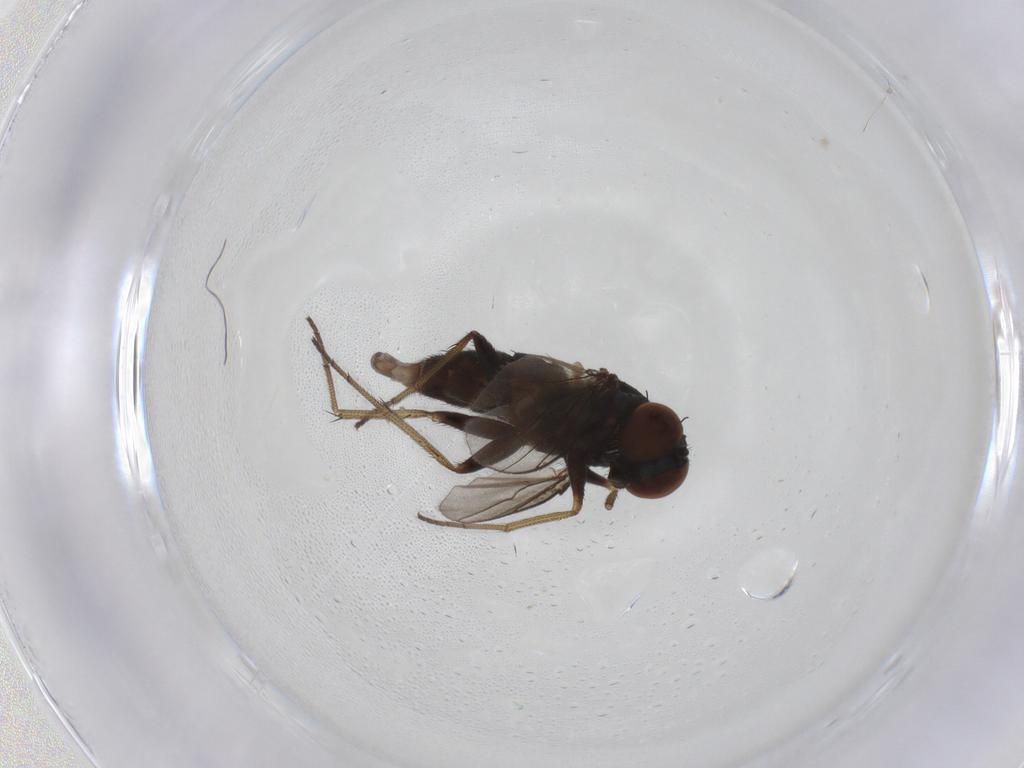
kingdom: Animalia
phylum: Arthropoda
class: Insecta
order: Diptera
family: Dolichopodidae
